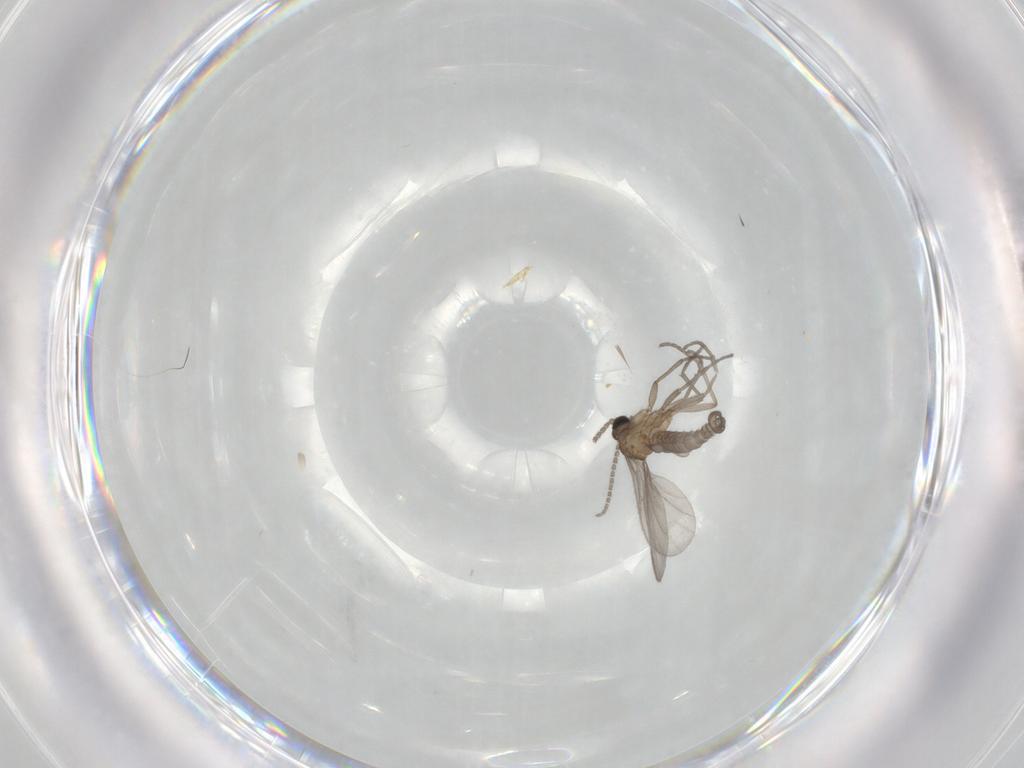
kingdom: Animalia
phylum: Arthropoda
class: Insecta
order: Diptera
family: Sciaridae
